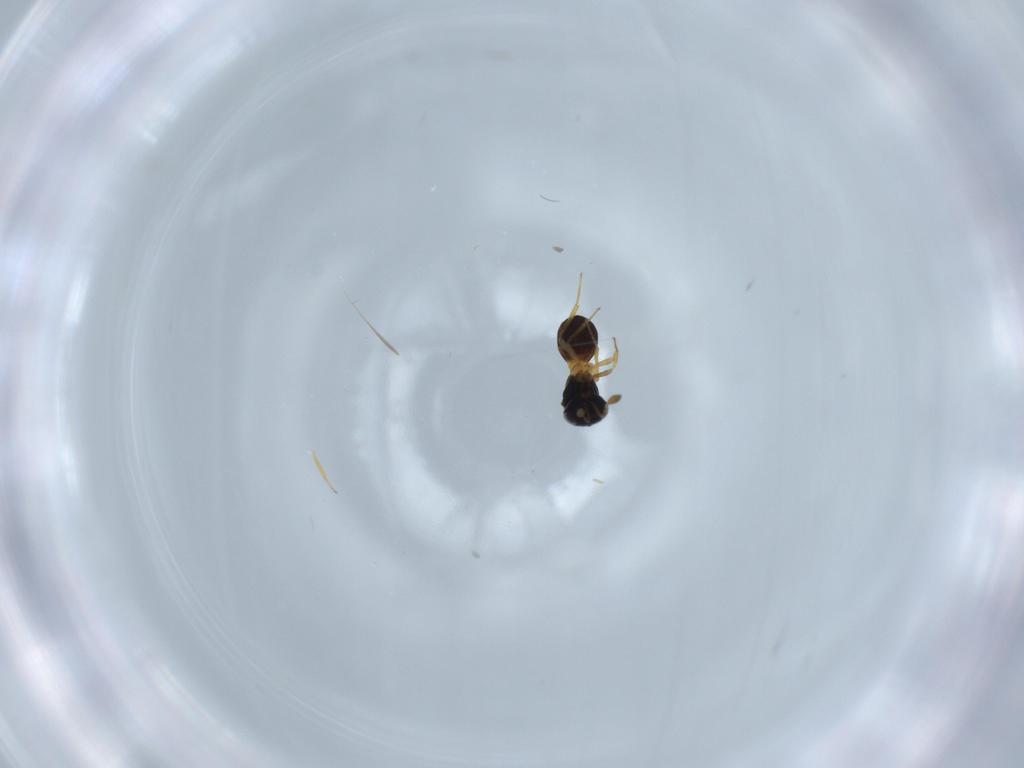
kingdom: Animalia
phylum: Arthropoda
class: Insecta
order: Hymenoptera
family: Scelionidae
